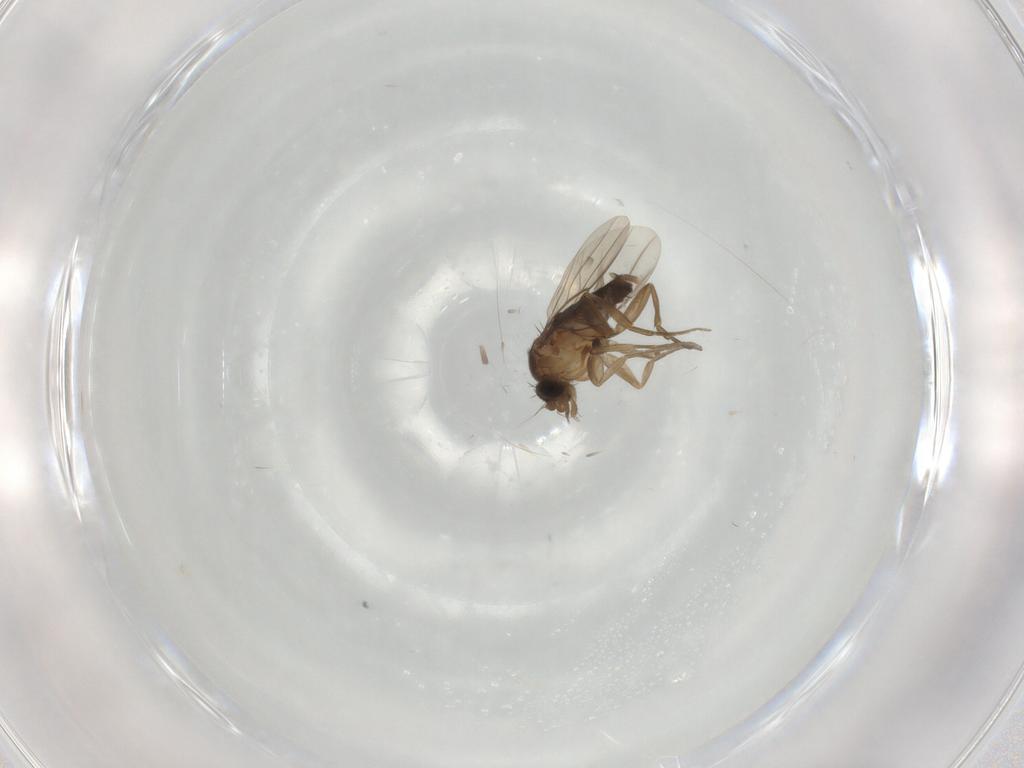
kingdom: Animalia
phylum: Arthropoda
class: Insecta
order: Diptera
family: Phoridae
